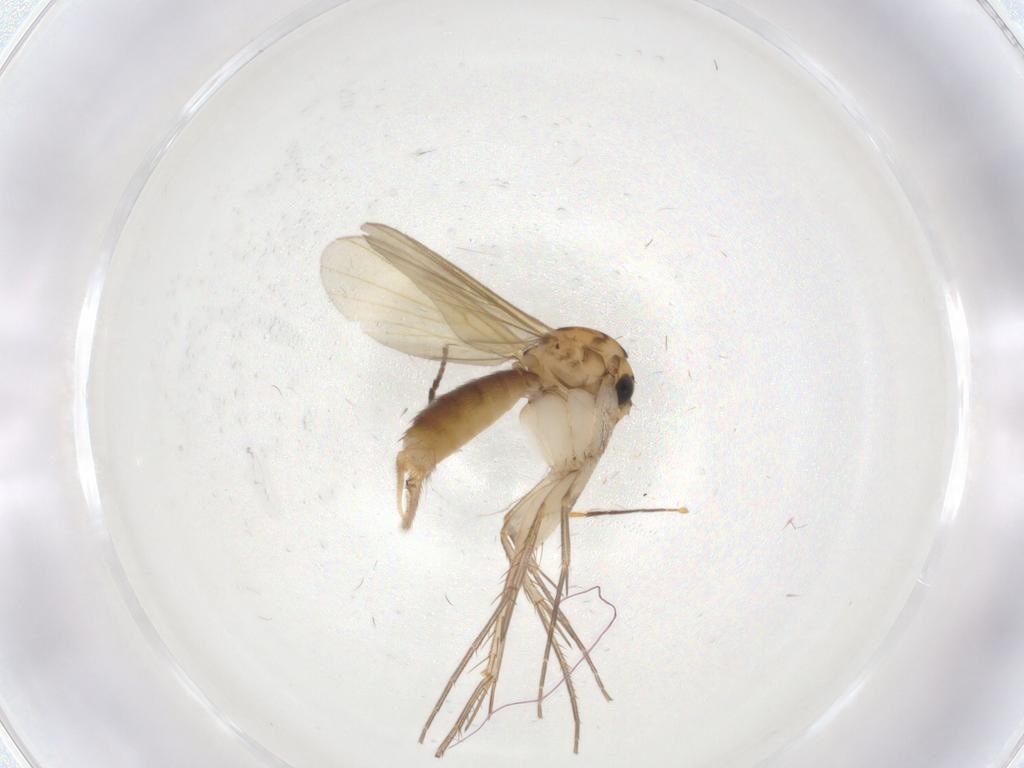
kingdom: Animalia
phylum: Arthropoda
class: Insecta
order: Diptera
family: Mycetophilidae
